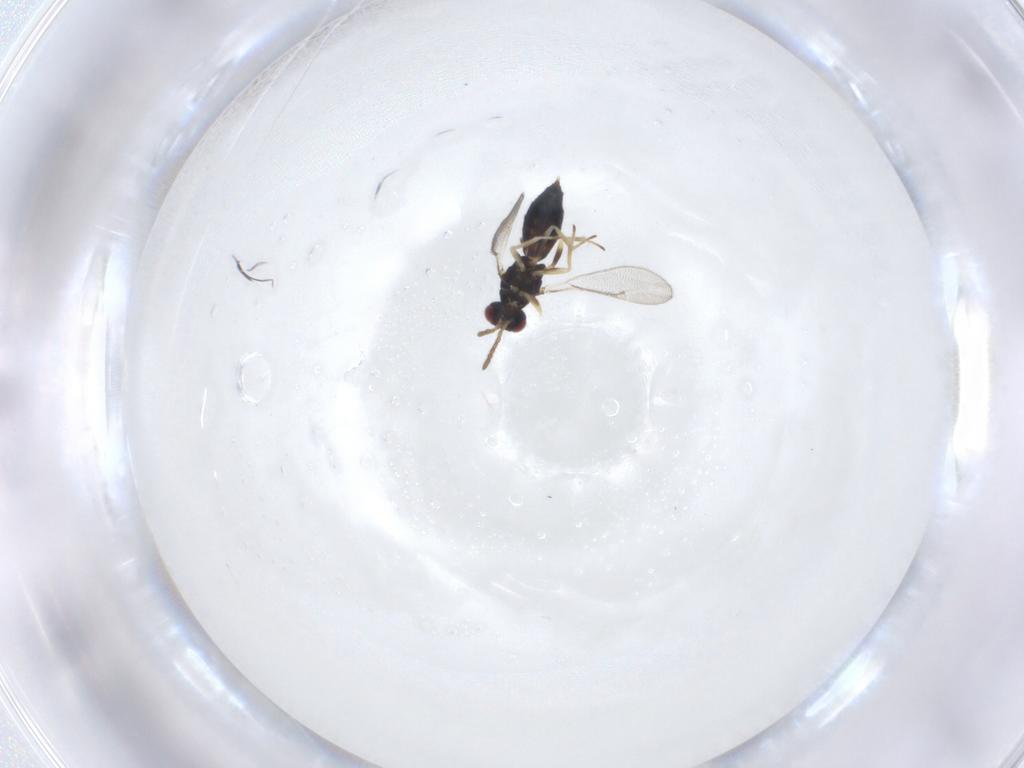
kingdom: Animalia
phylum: Arthropoda
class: Insecta
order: Hymenoptera
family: Eulophidae
